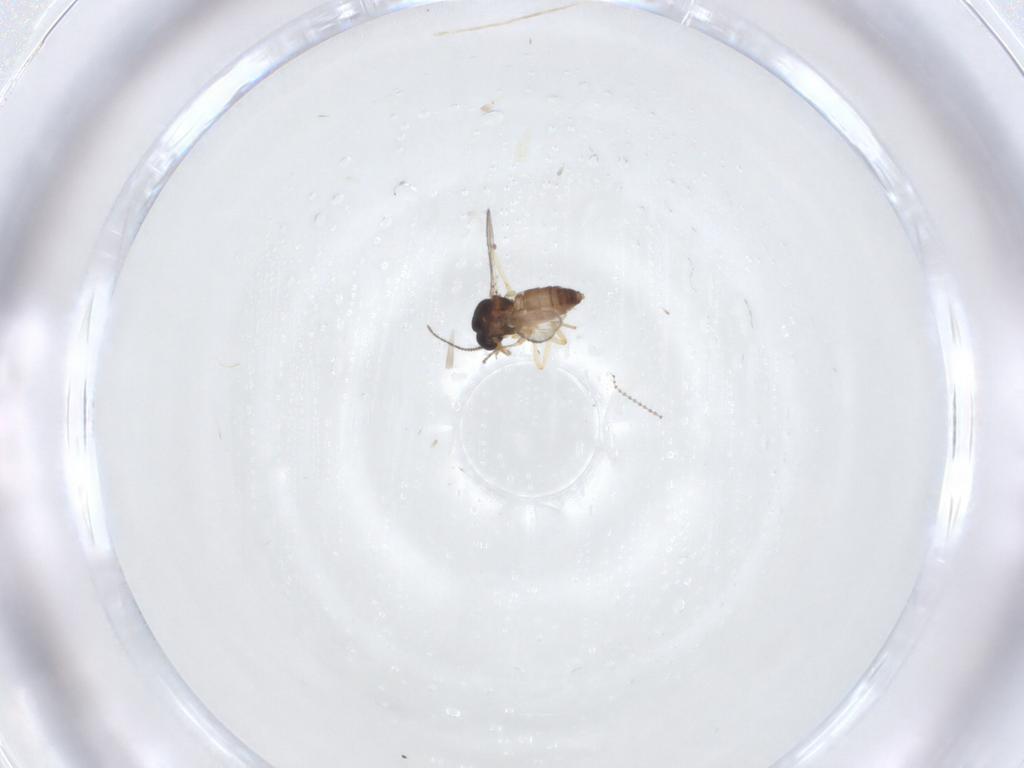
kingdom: Animalia
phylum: Arthropoda
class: Insecta
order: Diptera
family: Ceratopogonidae
